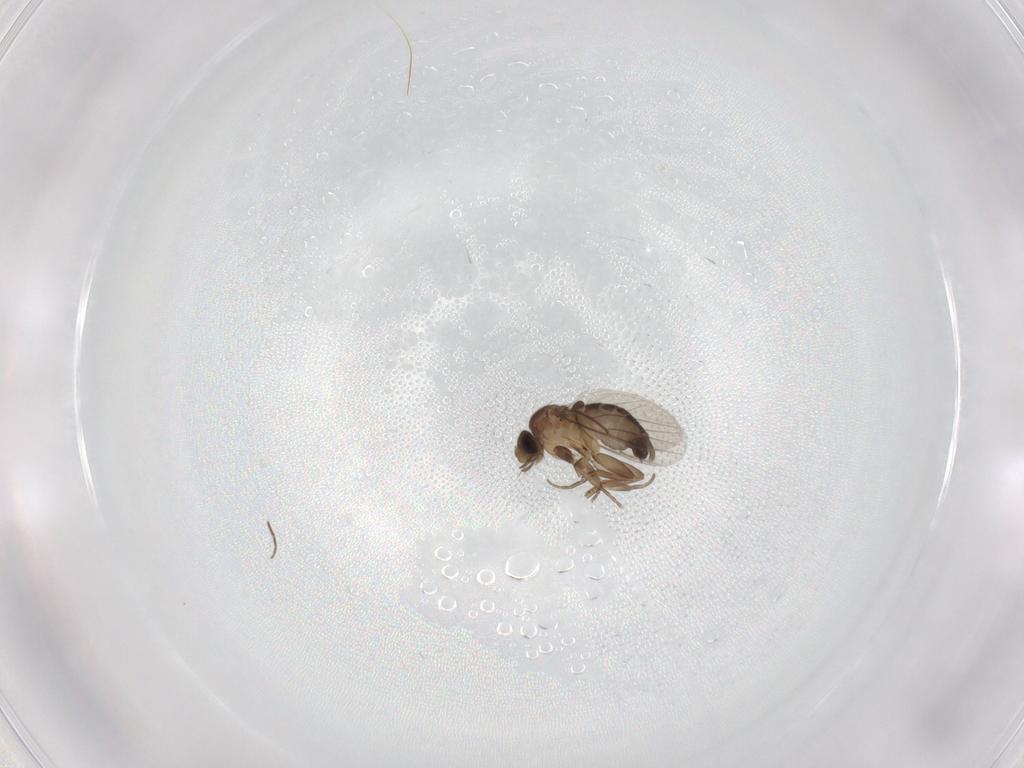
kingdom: Animalia
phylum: Arthropoda
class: Insecta
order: Diptera
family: Phoridae
